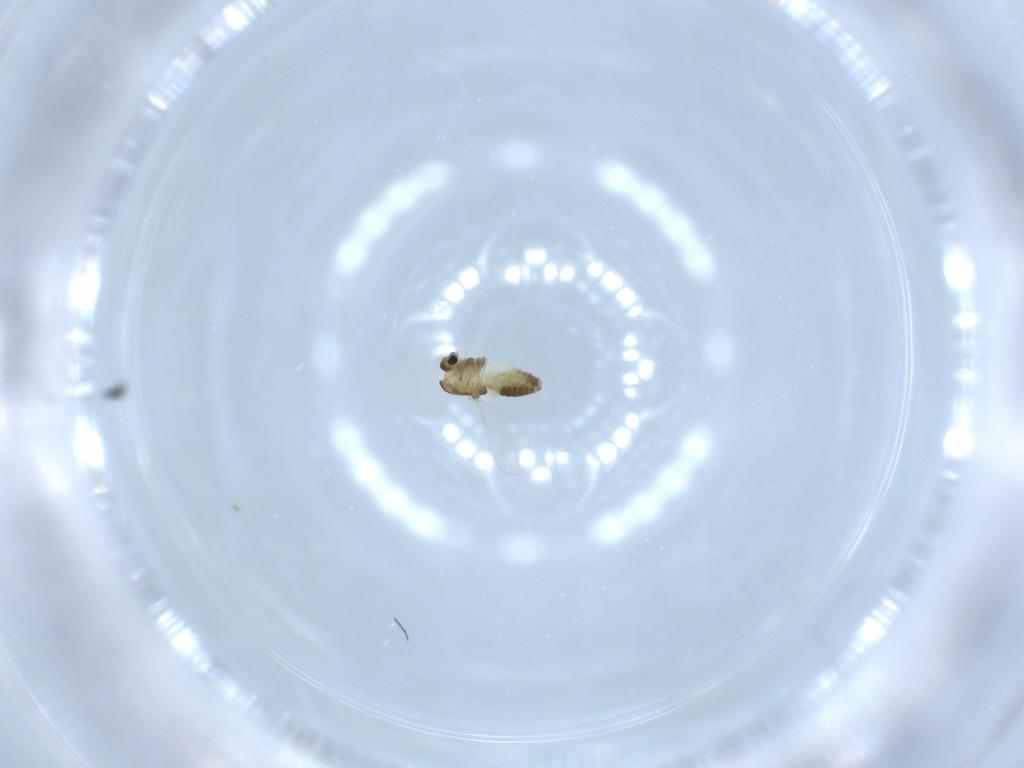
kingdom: Animalia
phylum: Arthropoda
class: Insecta
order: Diptera
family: Chironomidae
